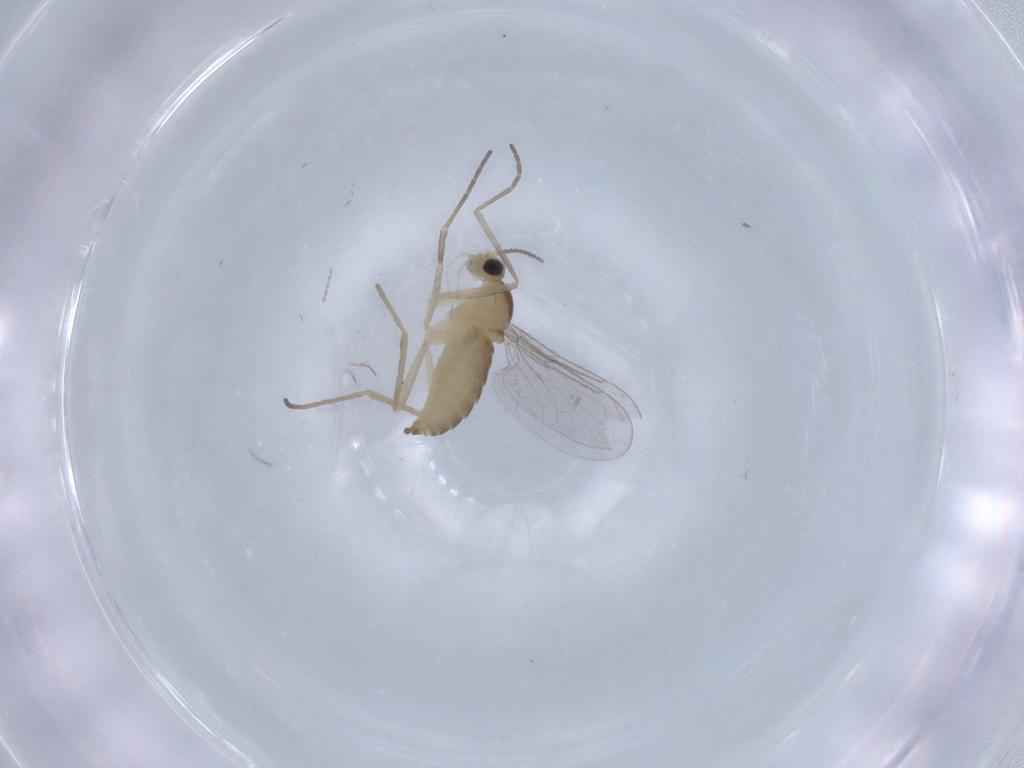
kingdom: Animalia
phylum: Arthropoda
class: Insecta
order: Diptera
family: Cecidomyiidae
